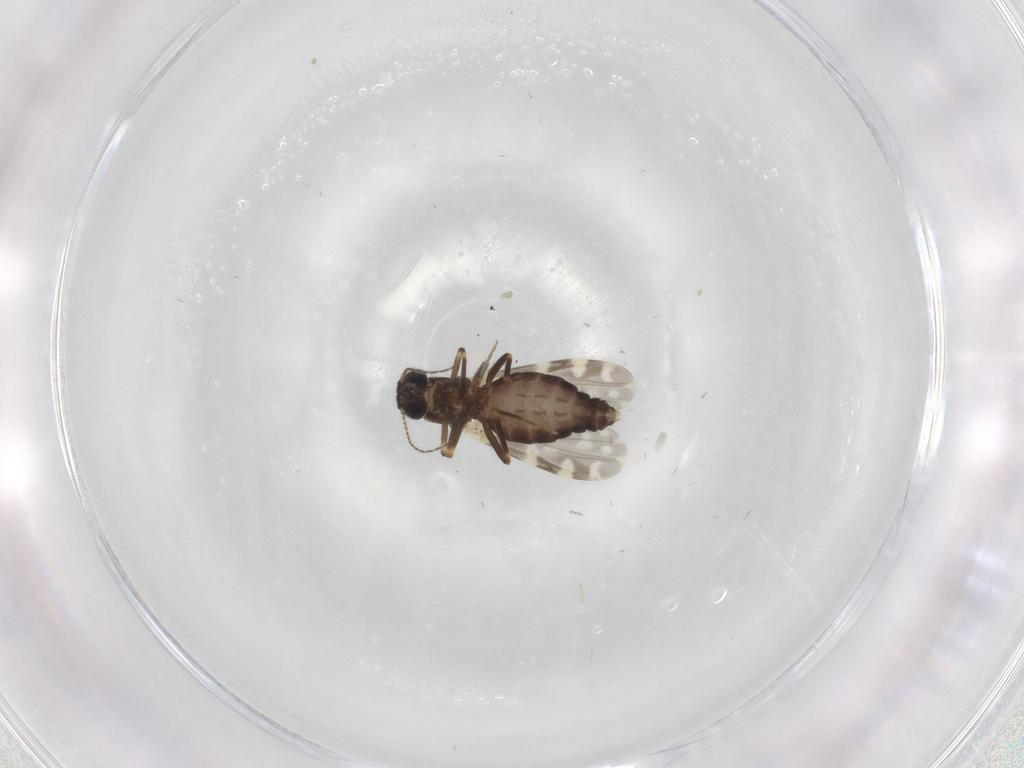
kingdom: Animalia
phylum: Arthropoda
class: Insecta
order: Diptera
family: Ceratopogonidae
